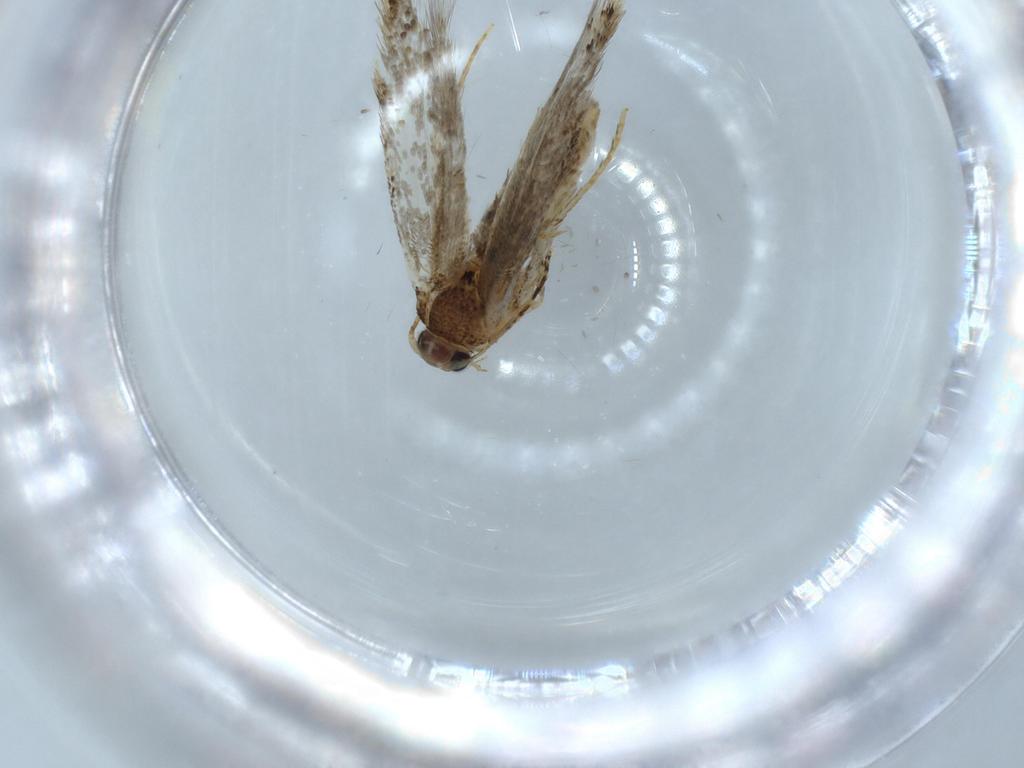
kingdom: Animalia
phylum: Arthropoda
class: Insecta
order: Lepidoptera
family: Meessiidae
